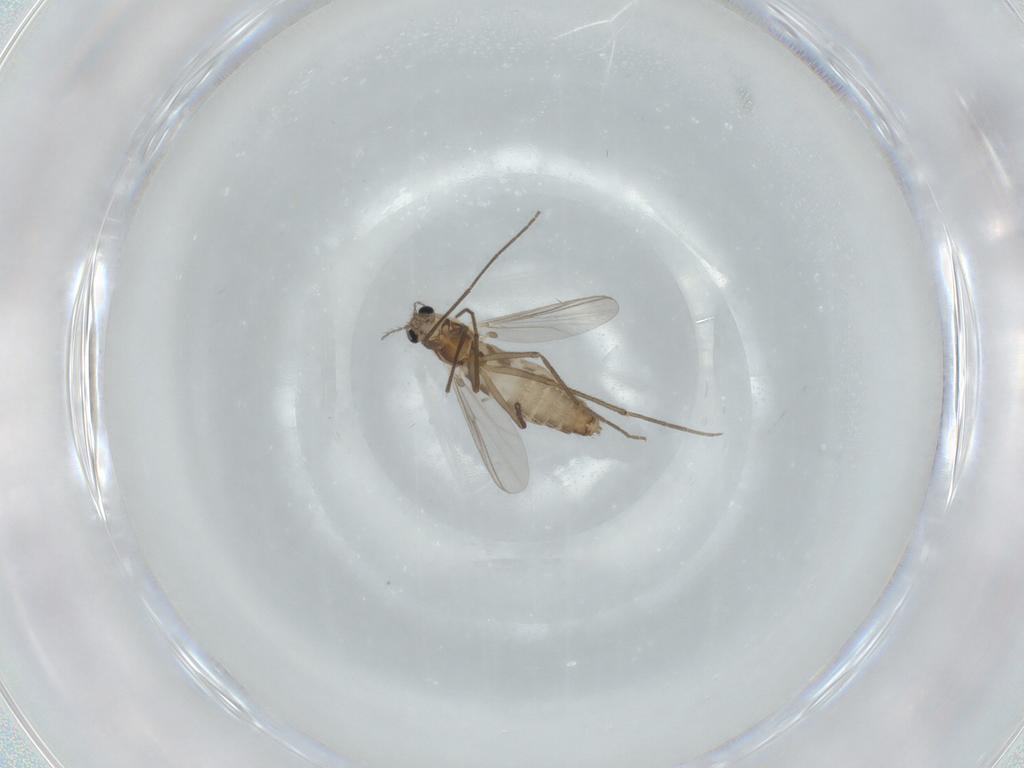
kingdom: Animalia
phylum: Arthropoda
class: Insecta
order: Diptera
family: Chironomidae
